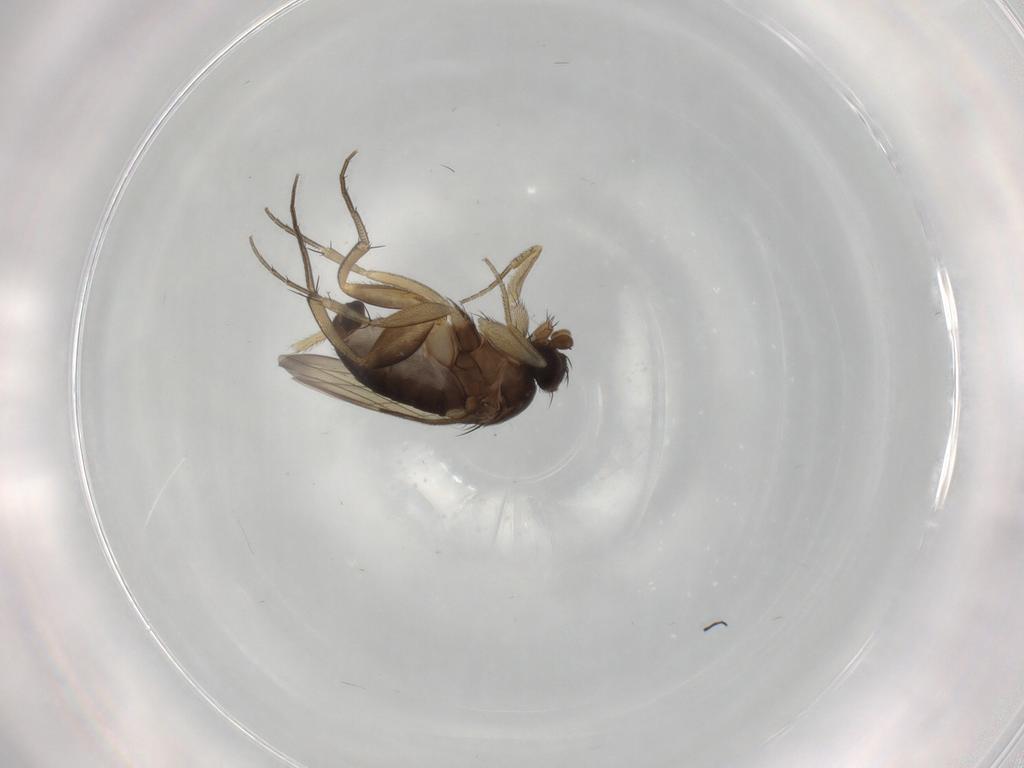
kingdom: Animalia
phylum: Arthropoda
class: Insecta
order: Diptera
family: Phoridae
